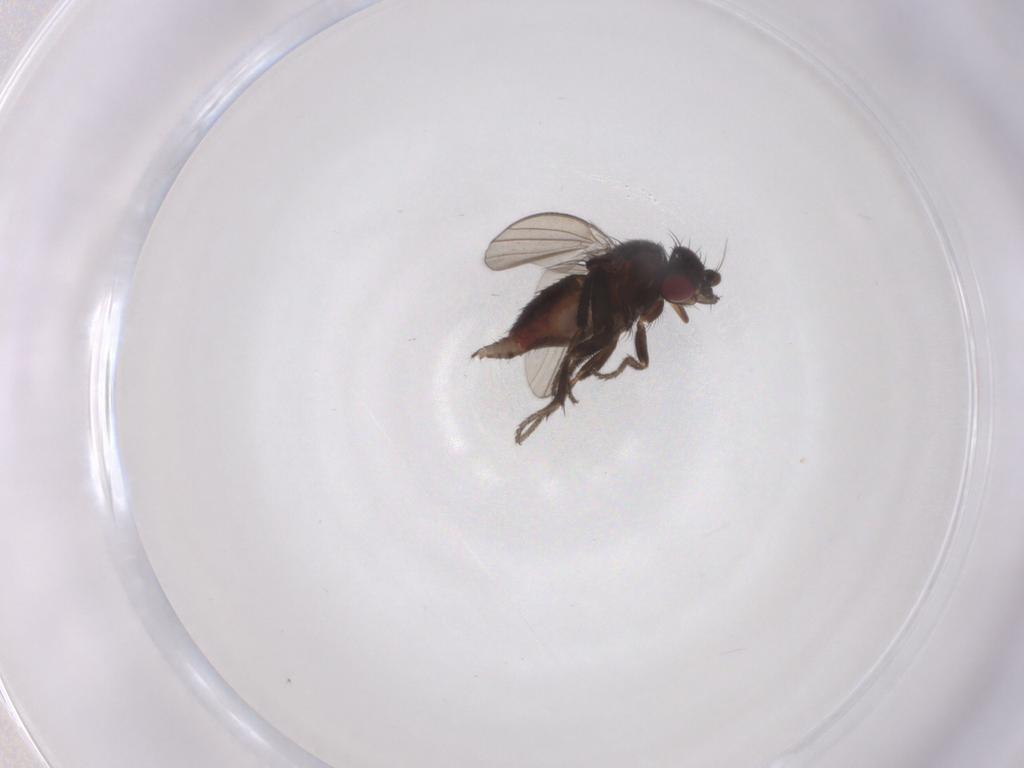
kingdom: Animalia
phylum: Arthropoda
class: Insecta
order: Diptera
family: Milichiidae
